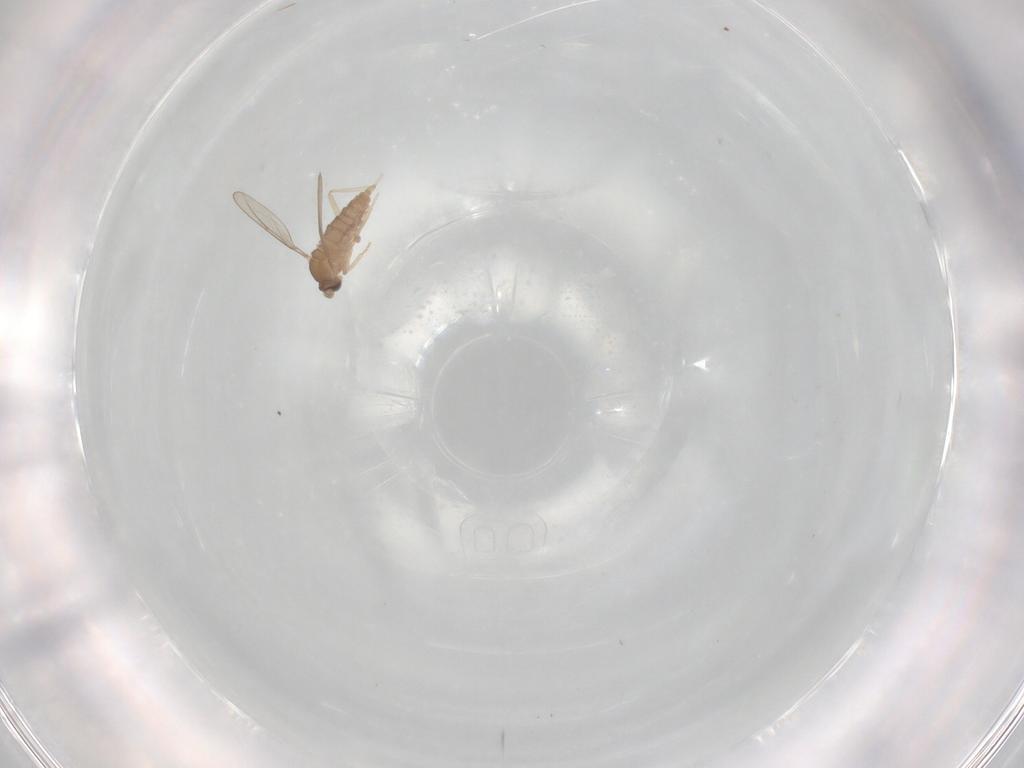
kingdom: Animalia
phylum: Arthropoda
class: Insecta
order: Diptera
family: Cecidomyiidae
